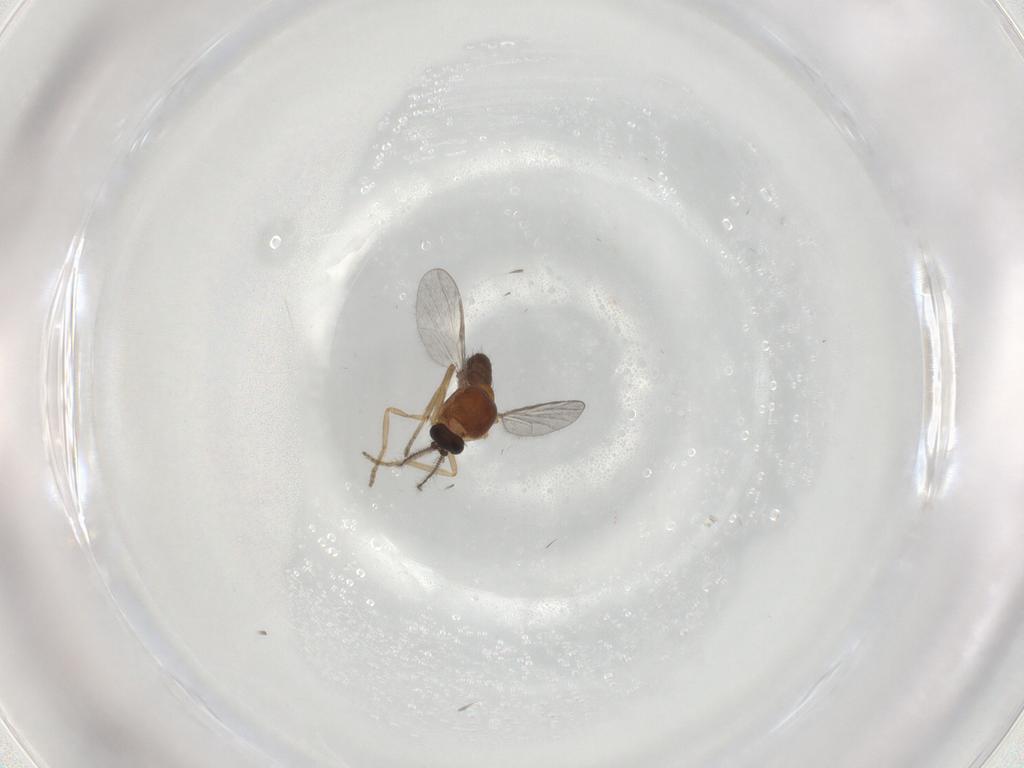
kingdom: Animalia
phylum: Arthropoda
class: Insecta
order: Diptera
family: Ceratopogonidae
